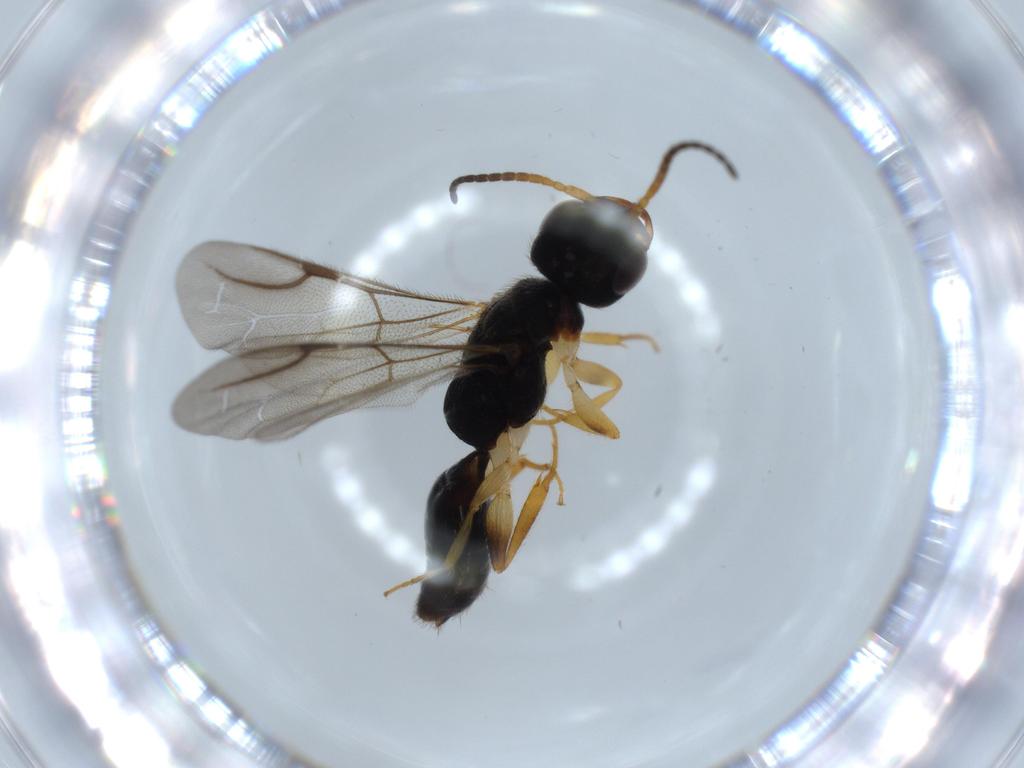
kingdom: Animalia
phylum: Arthropoda
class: Insecta
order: Hymenoptera
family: Bethylidae
